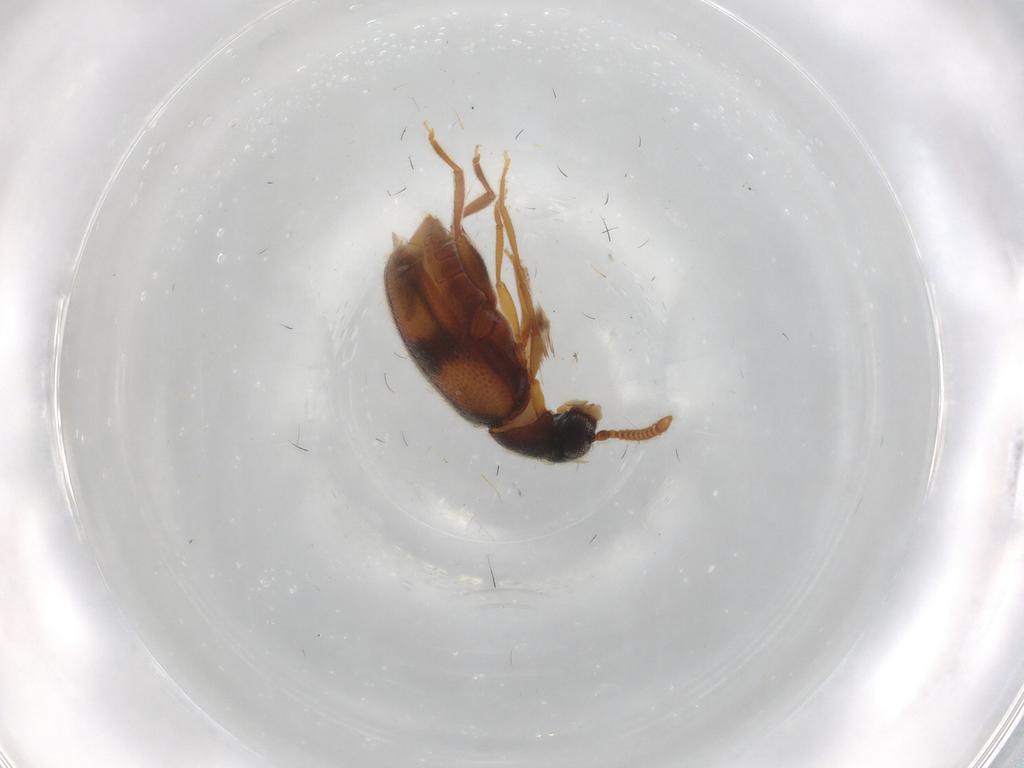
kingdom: Animalia
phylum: Arthropoda
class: Insecta
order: Coleoptera
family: Aderidae
